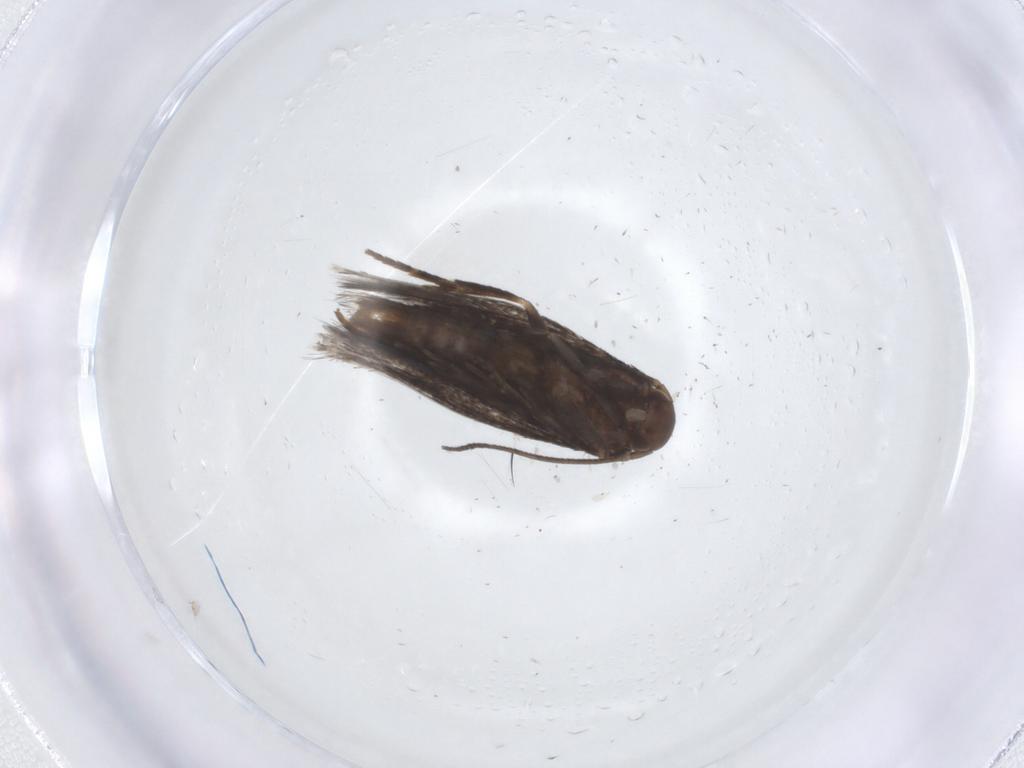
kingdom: Animalia
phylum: Arthropoda
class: Insecta
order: Lepidoptera
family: Elachistidae
